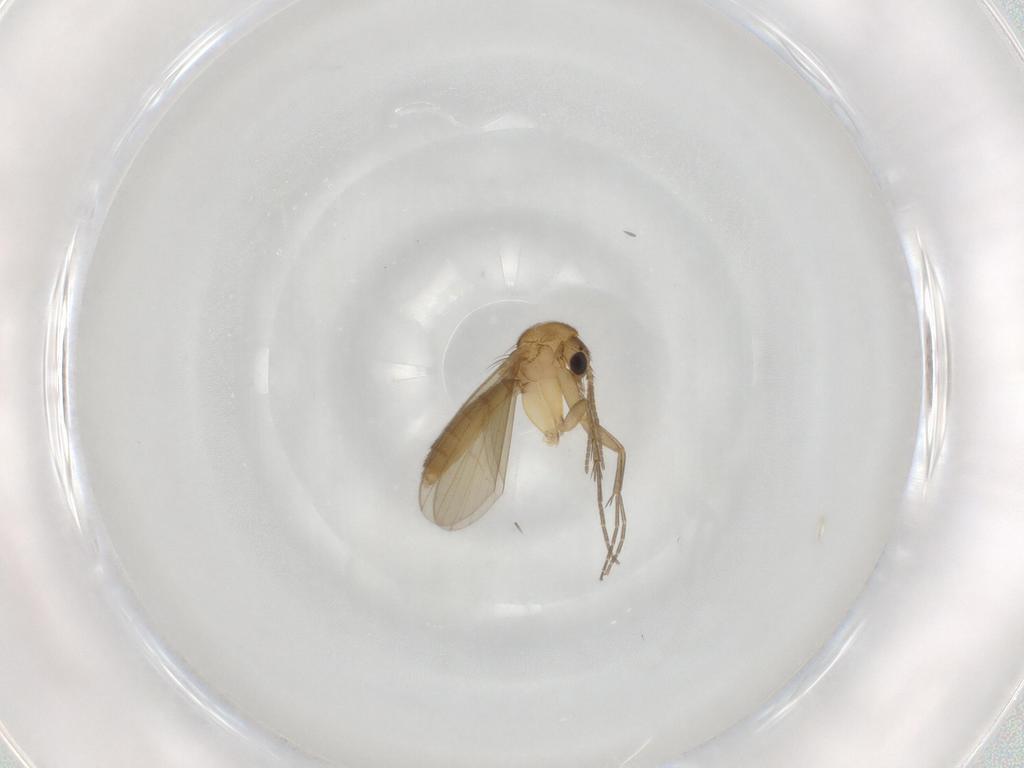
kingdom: Animalia
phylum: Arthropoda
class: Insecta
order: Diptera
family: Mycetophilidae
